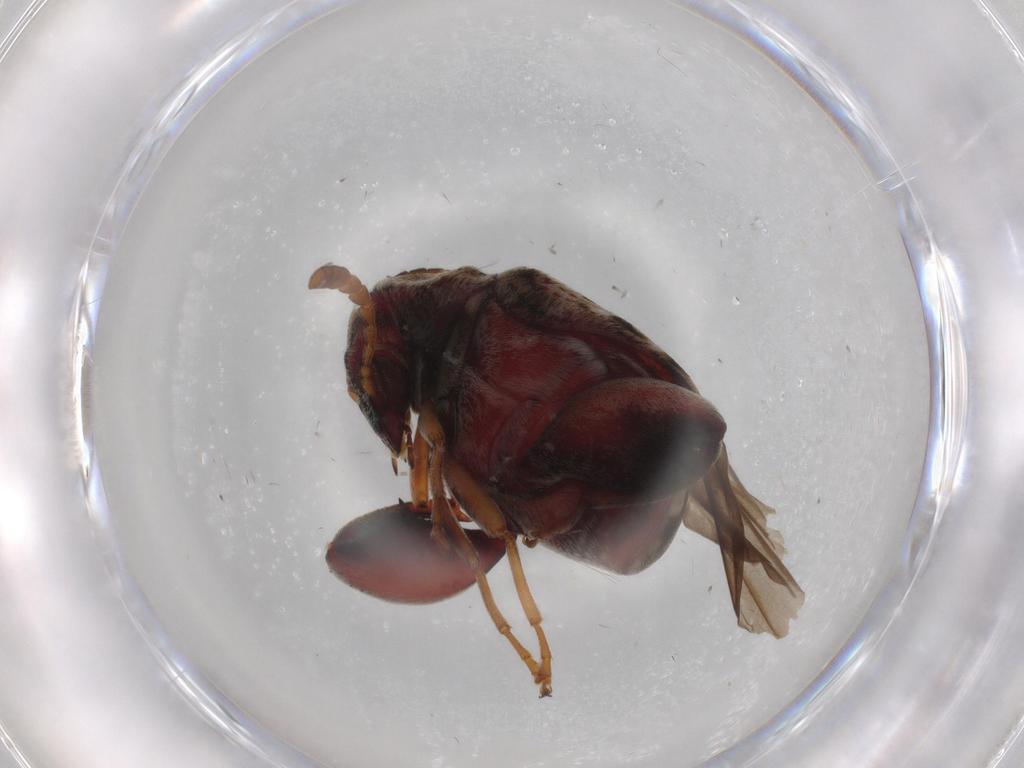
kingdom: Animalia
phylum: Arthropoda
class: Insecta
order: Coleoptera
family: Chrysomelidae
